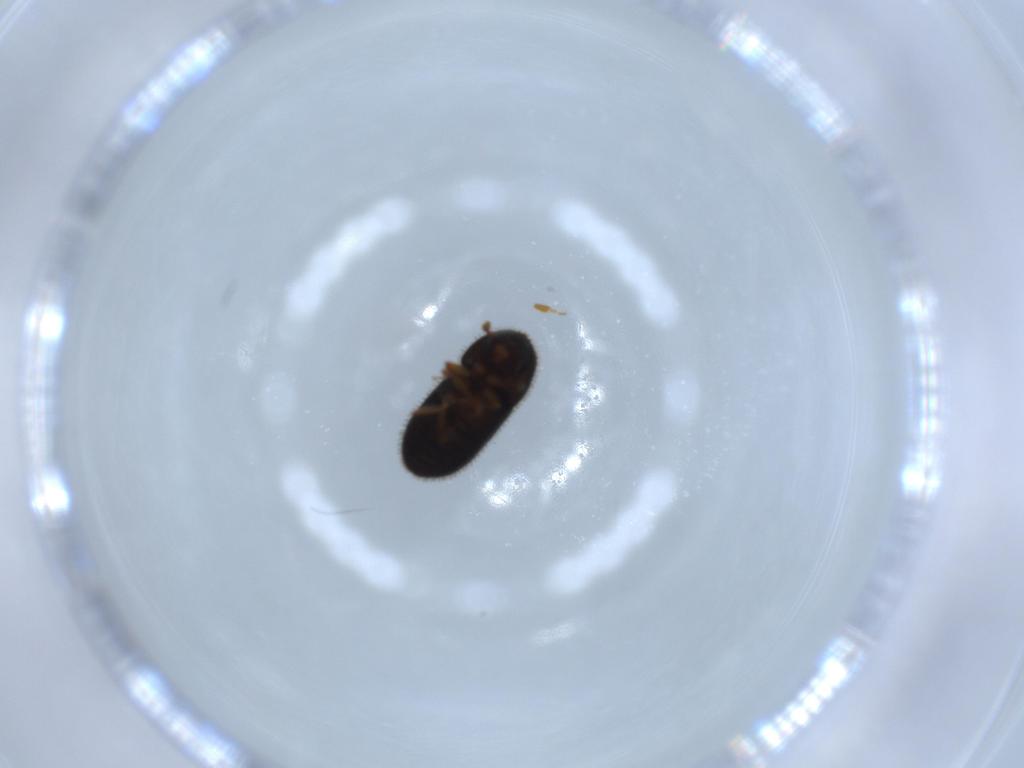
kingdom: Animalia
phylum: Arthropoda
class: Insecta
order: Coleoptera
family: Curculionidae
